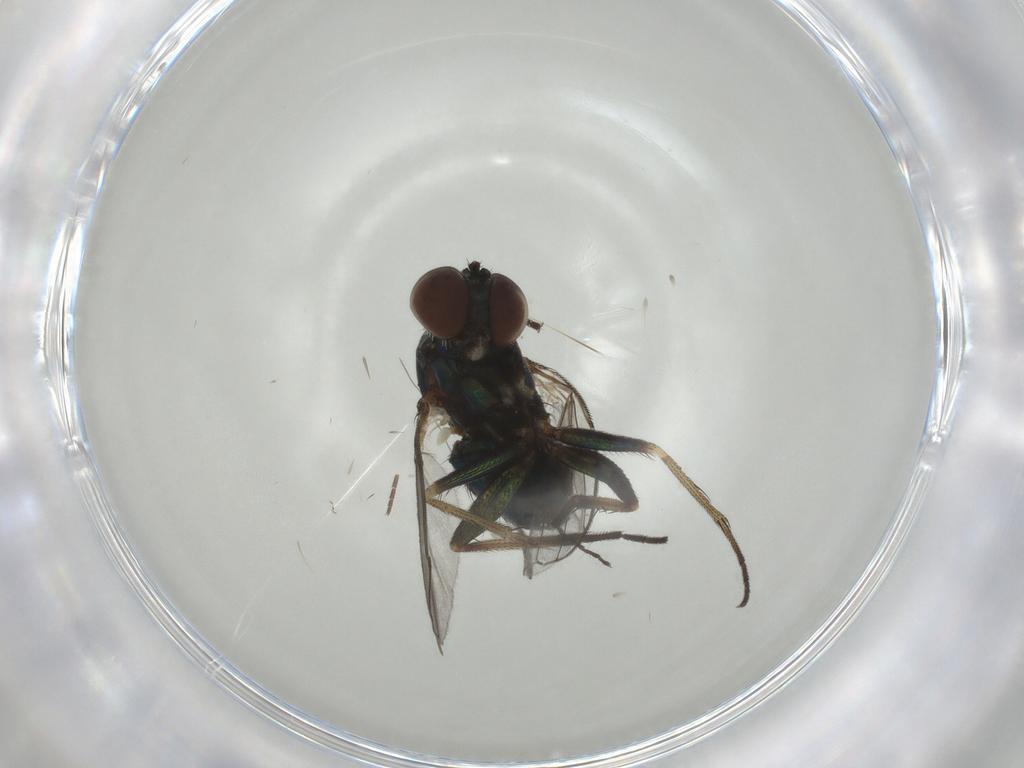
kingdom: Animalia
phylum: Arthropoda
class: Insecta
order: Diptera
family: Dolichopodidae
